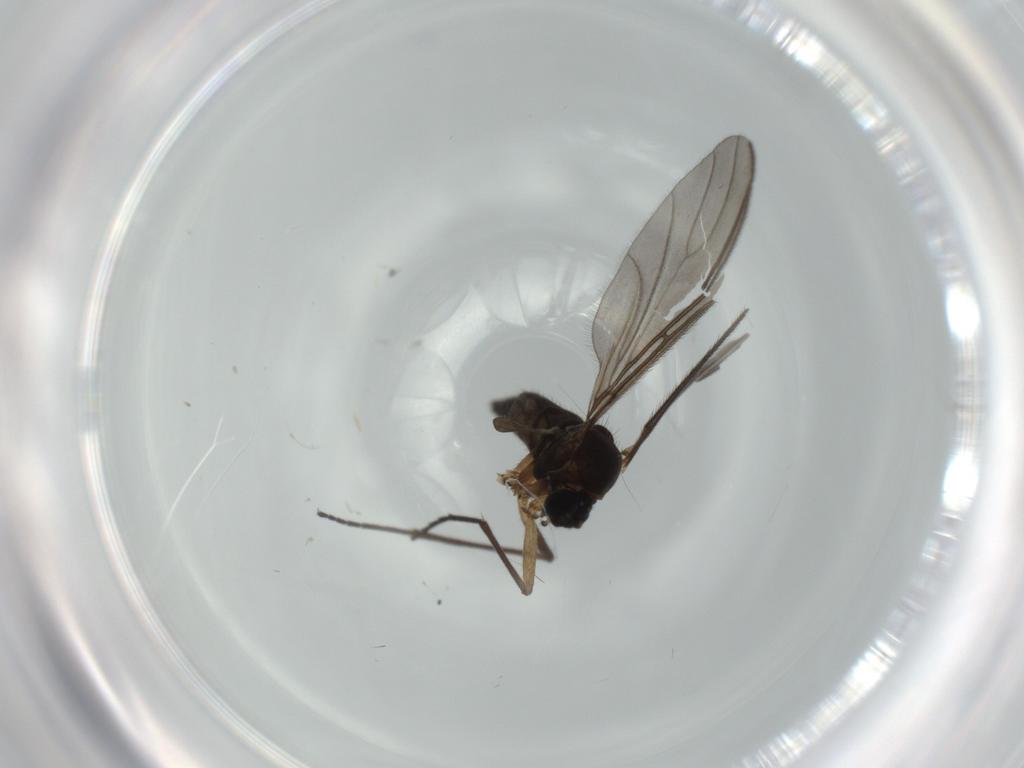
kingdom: Animalia
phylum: Arthropoda
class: Insecta
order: Diptera
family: Sciaridae
